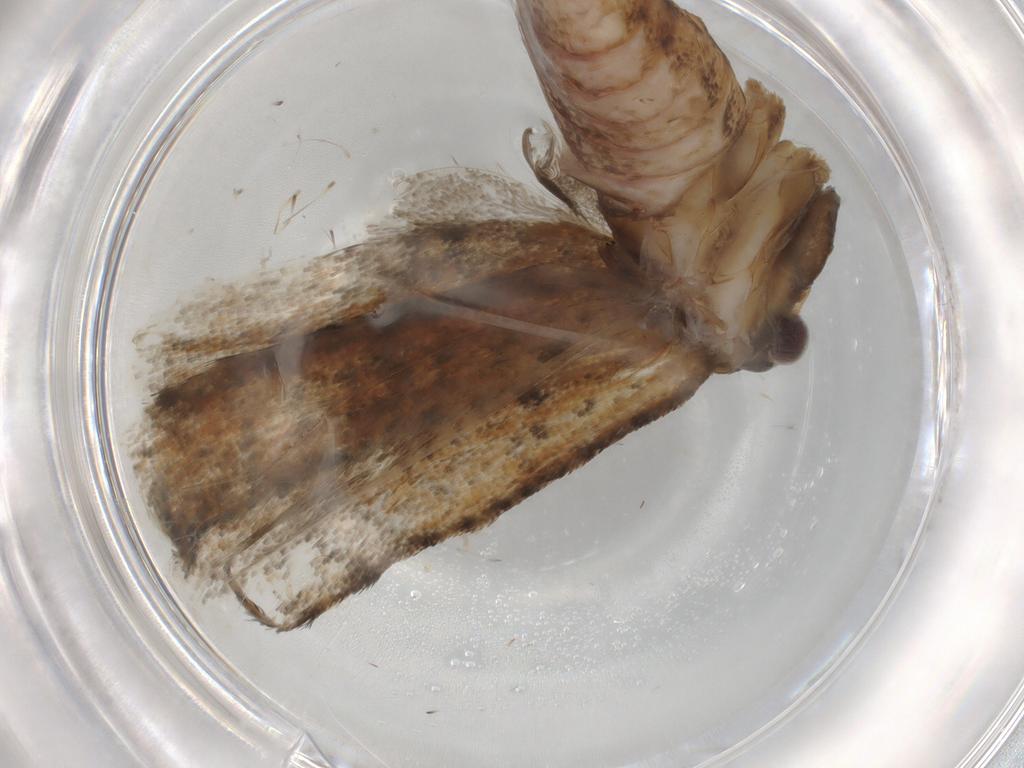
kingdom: Animalia
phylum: Arthropoda
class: Insecta
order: Lepidoptera
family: Tortricidae
